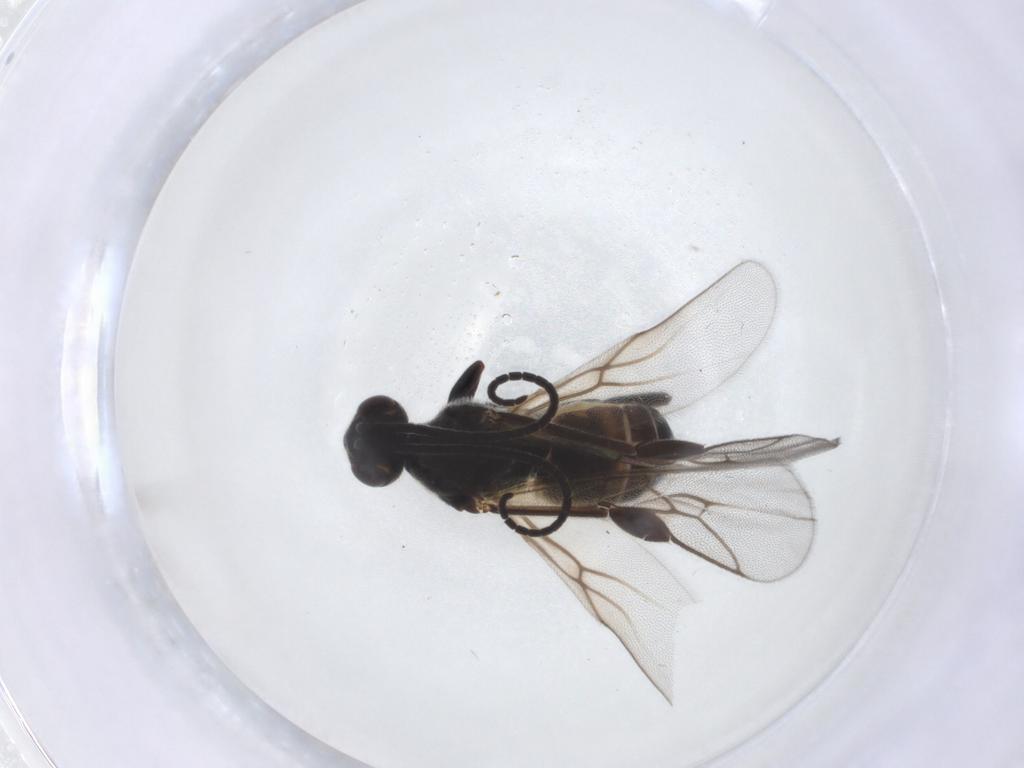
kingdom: Animalia
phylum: Arthropoda
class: Insecta
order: Hymenoptera
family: Braconidae
